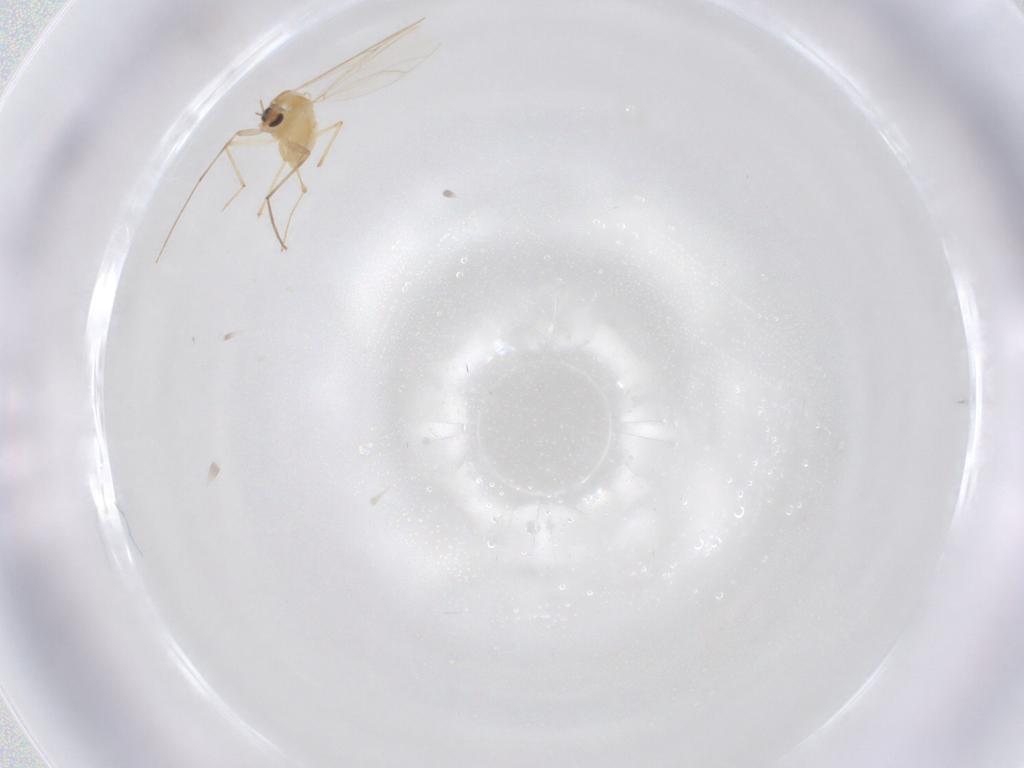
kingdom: Animalia
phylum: Arthropoda
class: Insecta
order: Diptera
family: Chironomidae
